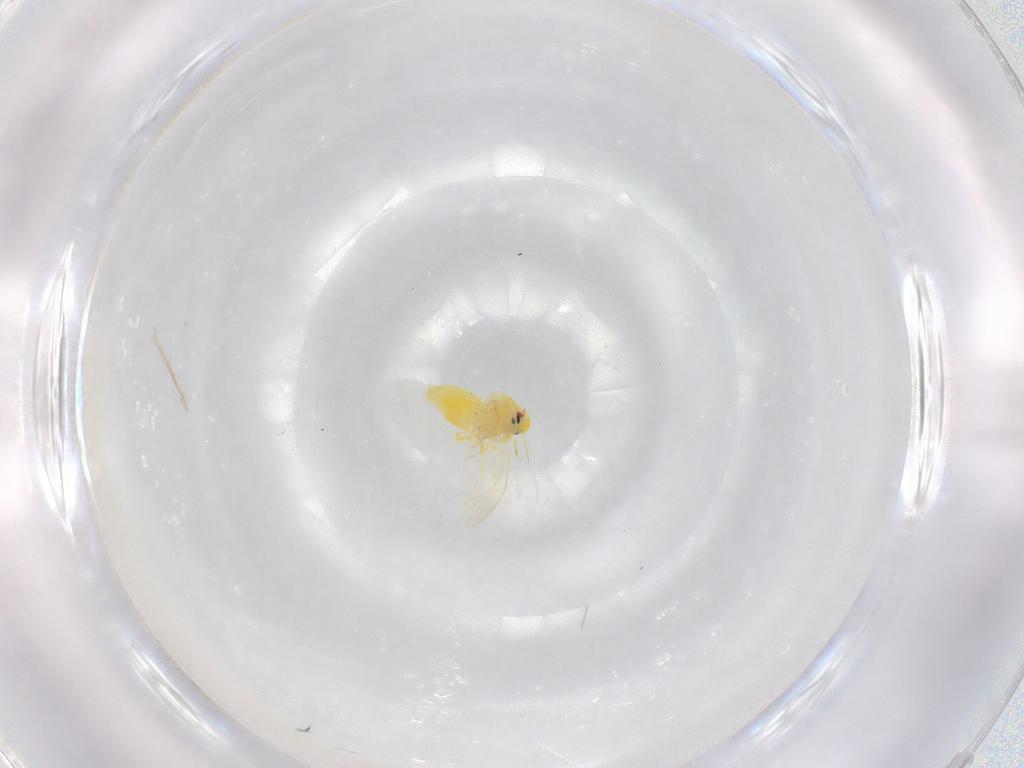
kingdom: Animalia
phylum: Arthropoda
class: Insecta
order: Hemiptera
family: Aleyrodidae
